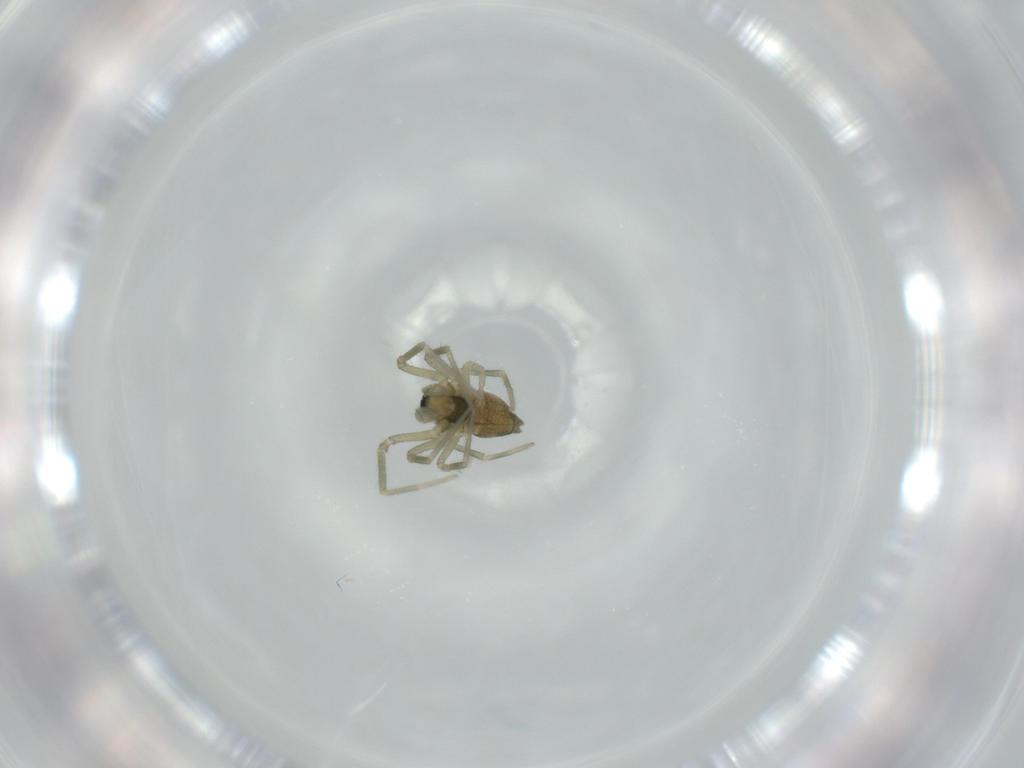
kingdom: Animalia
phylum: Arthropoda
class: Arachnida
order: Araneae
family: Linyphiidae
